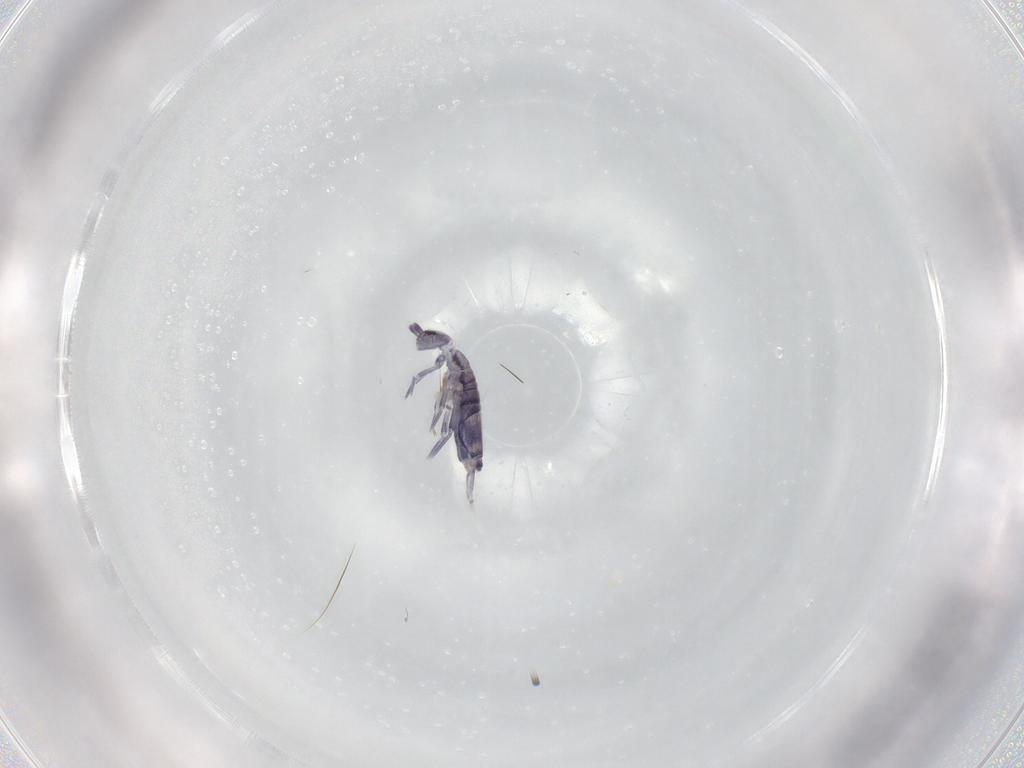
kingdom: Animalia
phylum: Arthropoda
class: Collembola
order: Entomobryomorpha
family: Entomobryidae
